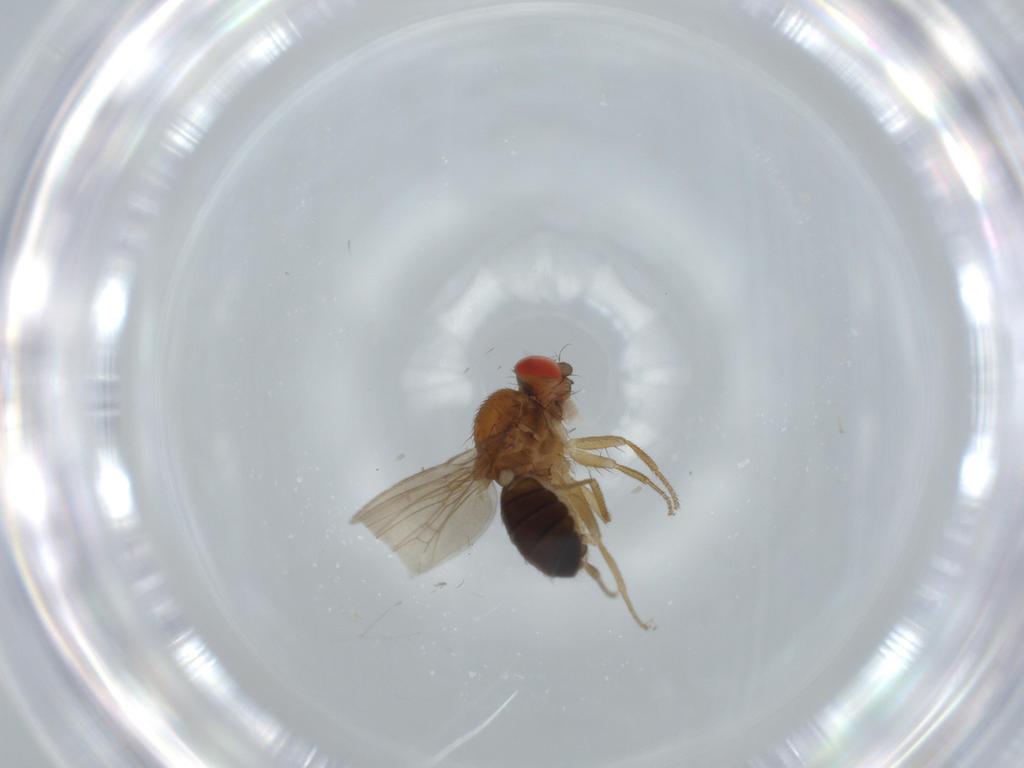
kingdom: Animalia
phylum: Arthropoda
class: Insecta
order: Diptera
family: Drosophilidae
